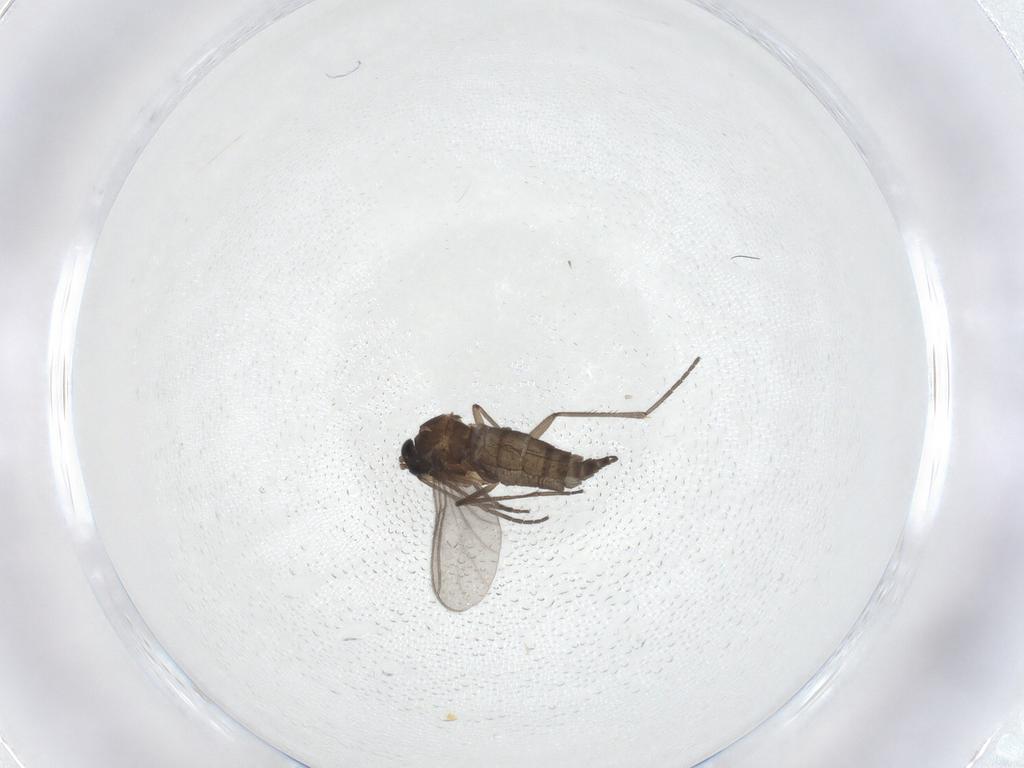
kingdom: Animalia
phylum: Arthropoda
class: Insecta
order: Diptera
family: Sciaridae
